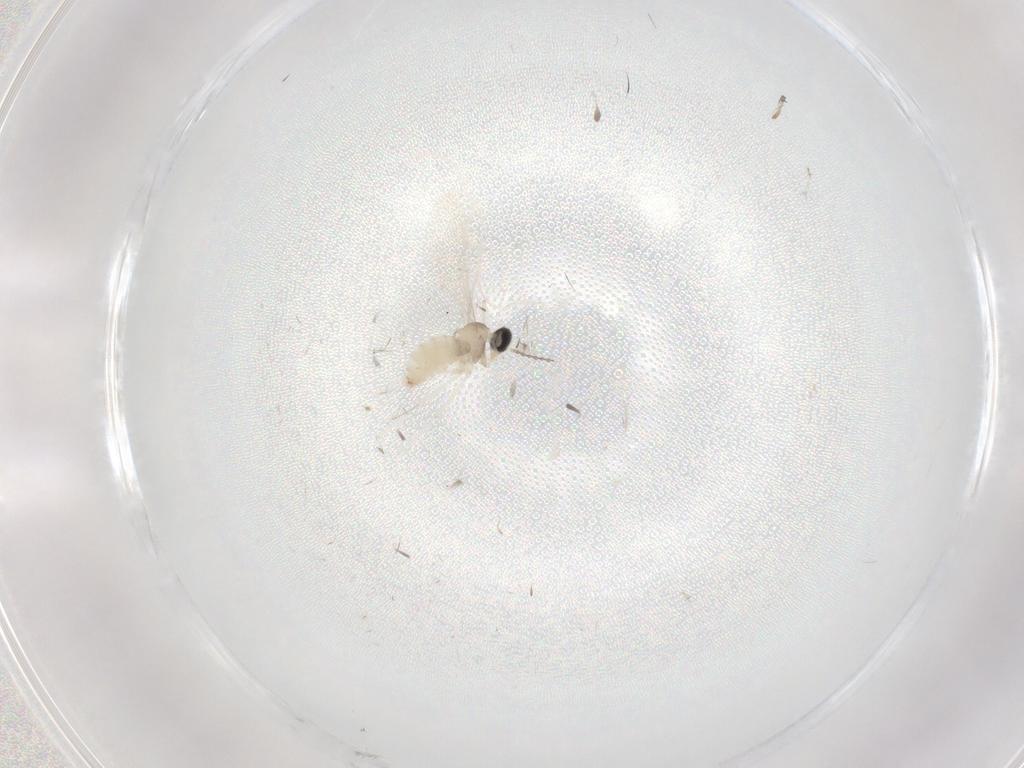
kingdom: Animalia
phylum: Arthropoda
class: Insecta
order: Diptera
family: Cecidomyiidae
